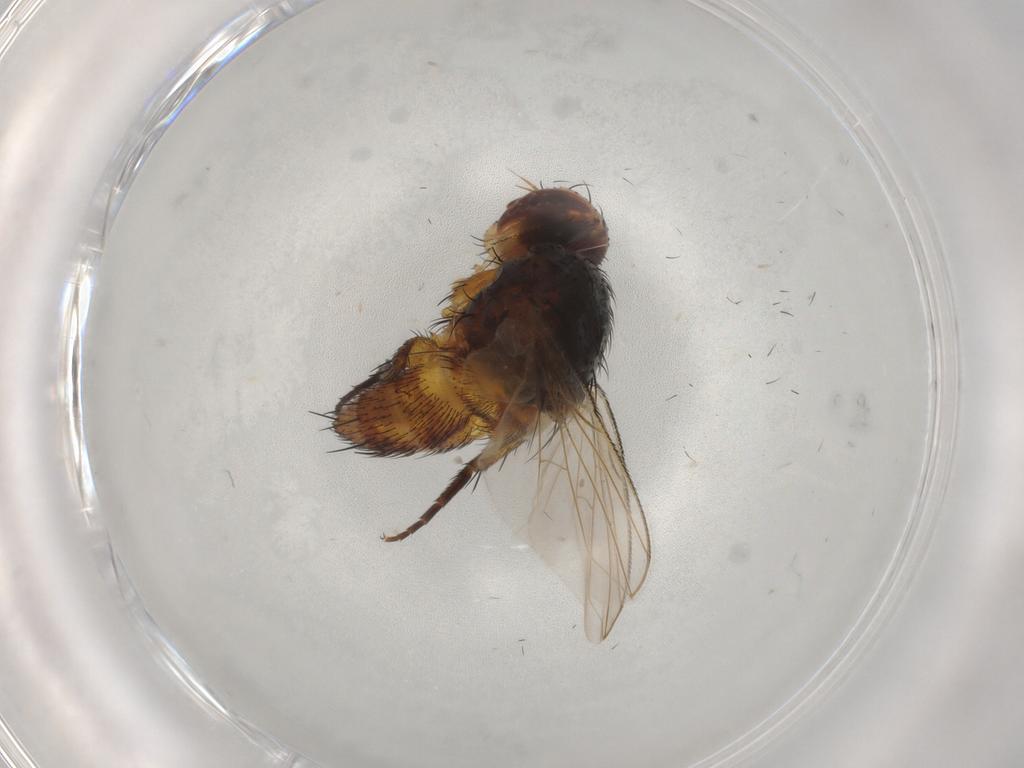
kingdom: Animalia
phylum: Arthropoda
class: Insecta
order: Diptera
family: Tachinidae
